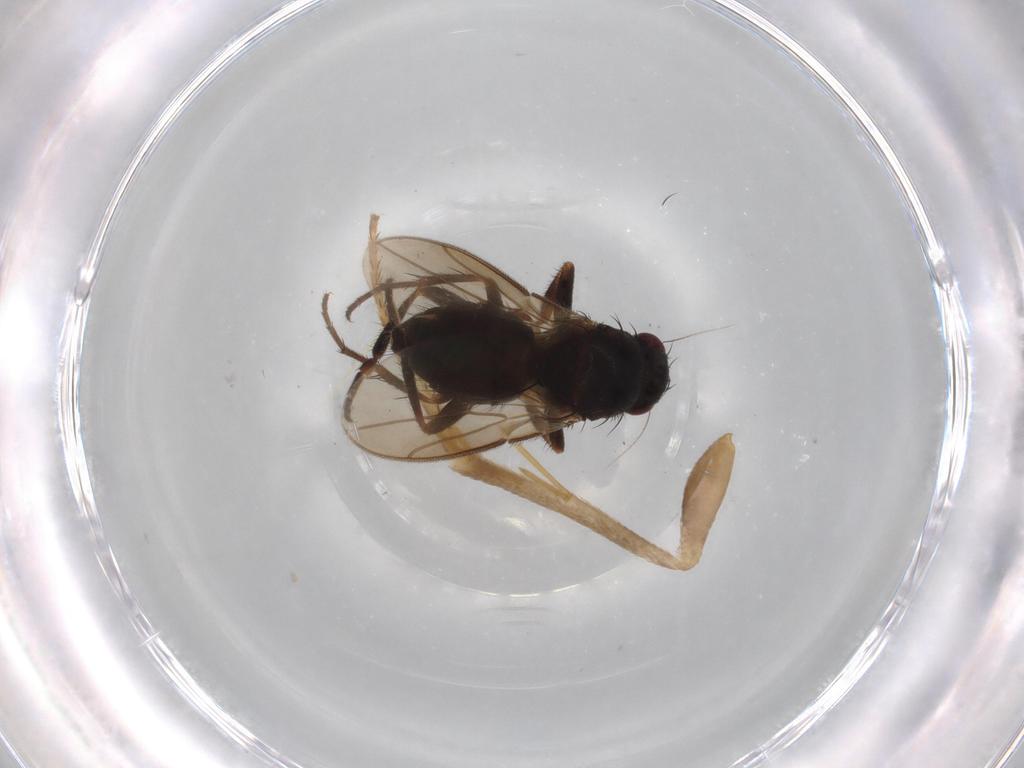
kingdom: Animalia
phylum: Arthropoda
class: Insecta
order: Diptera
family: Sphaeroceridae
